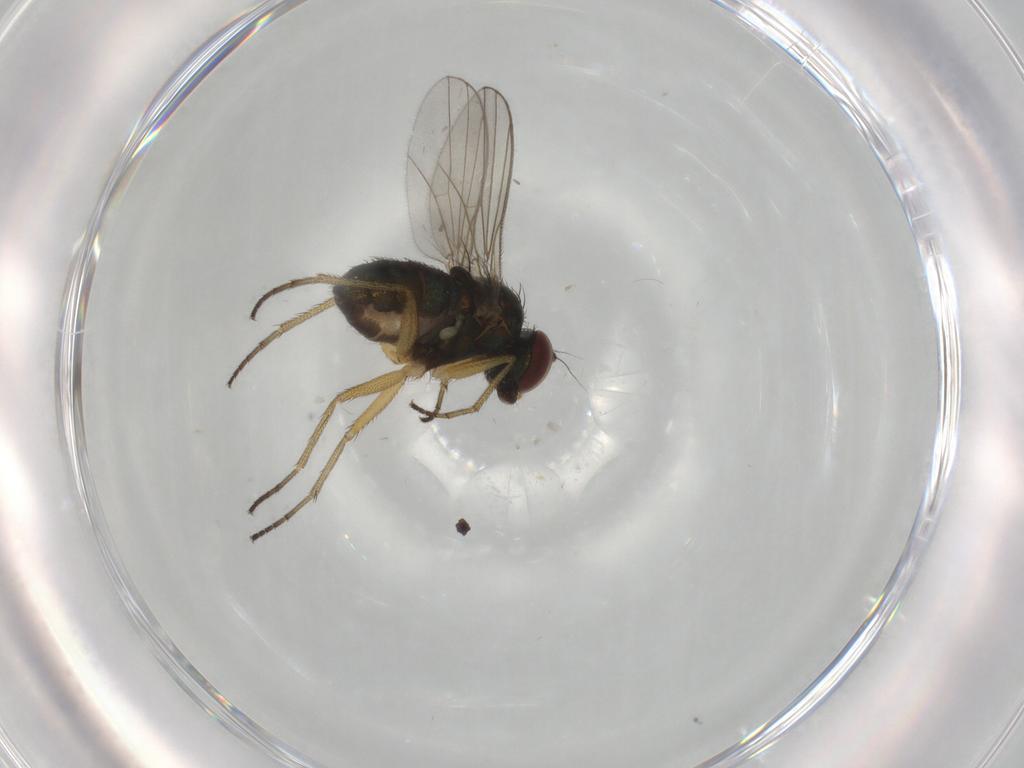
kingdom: Animalia
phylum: Arthropoda
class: Insecta
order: Diptera
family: Dolichopodidae
